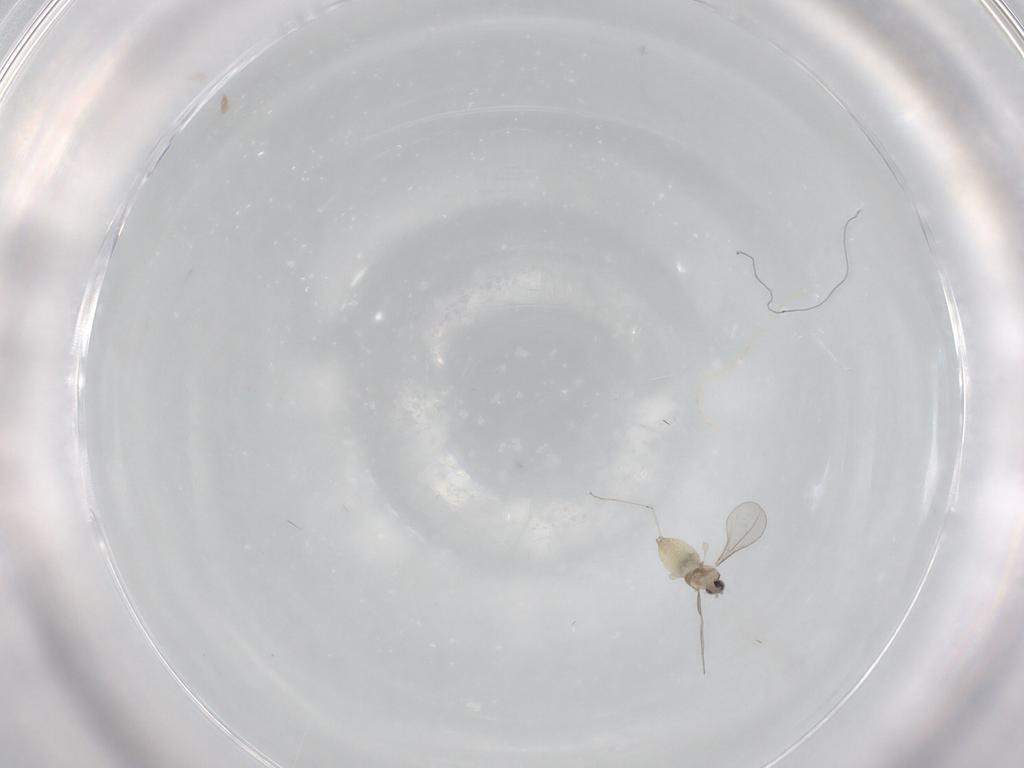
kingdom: Animalia
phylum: Arthropoda
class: Insecta
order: Diptera
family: Cecidomyiidae
